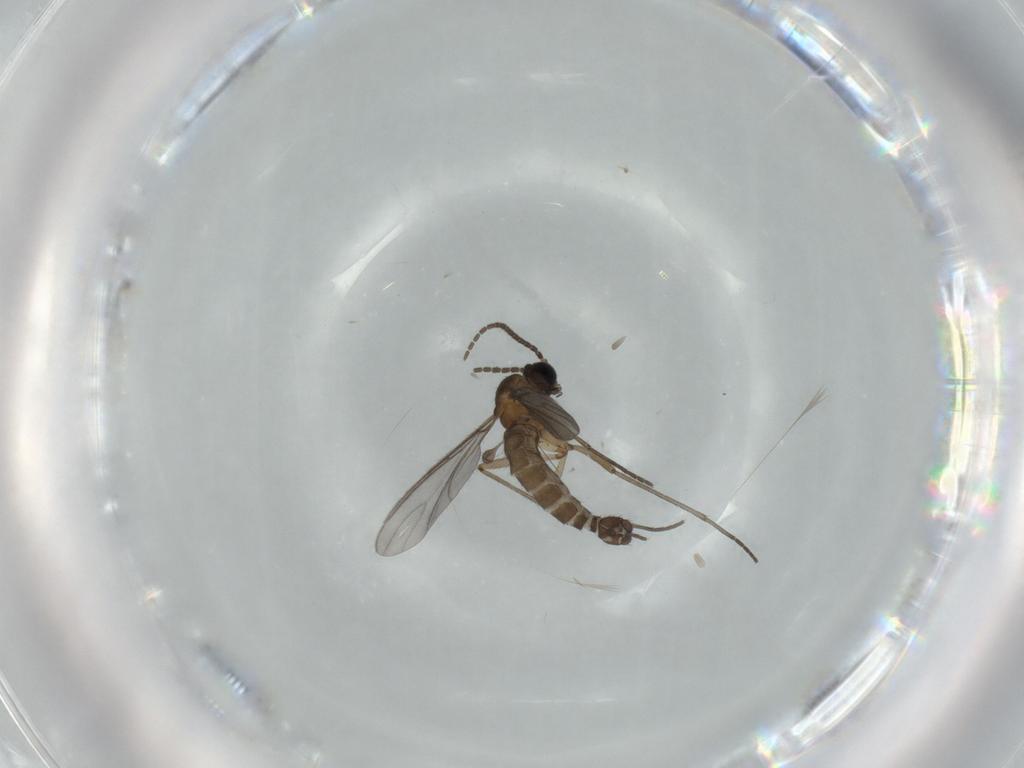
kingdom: Animalia
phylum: Arthropoda
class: Insecta
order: Diptera
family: Sciaridae
